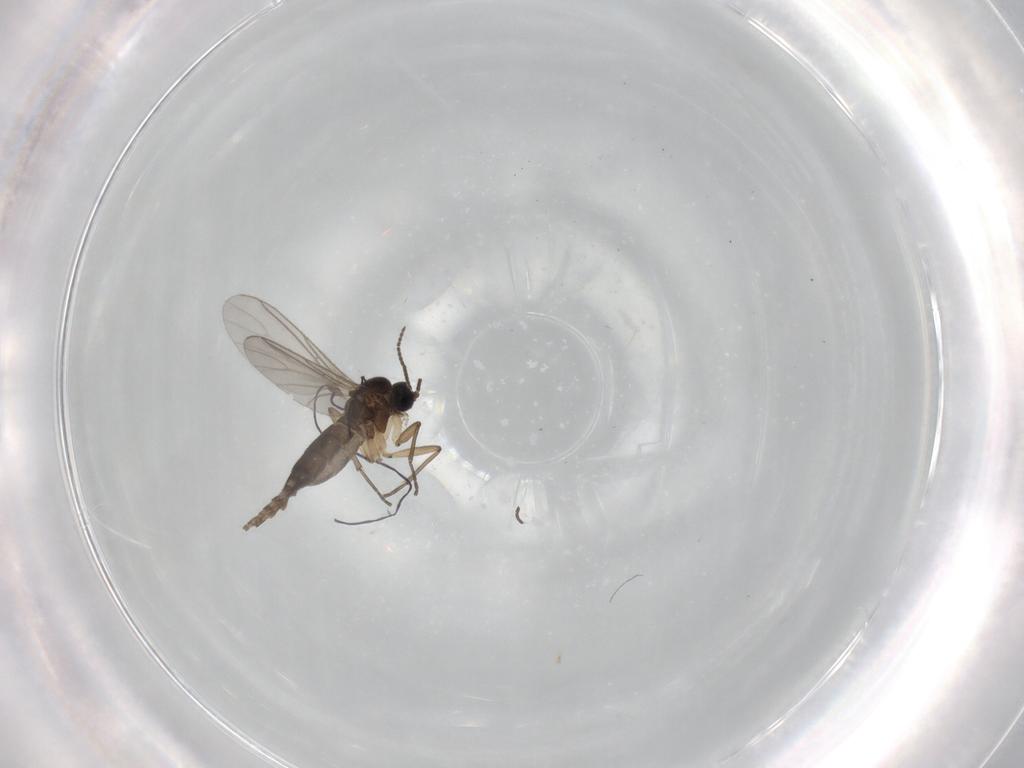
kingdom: Animalia
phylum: Arthropoda
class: Insecta
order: Diptera
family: Sciaridae
